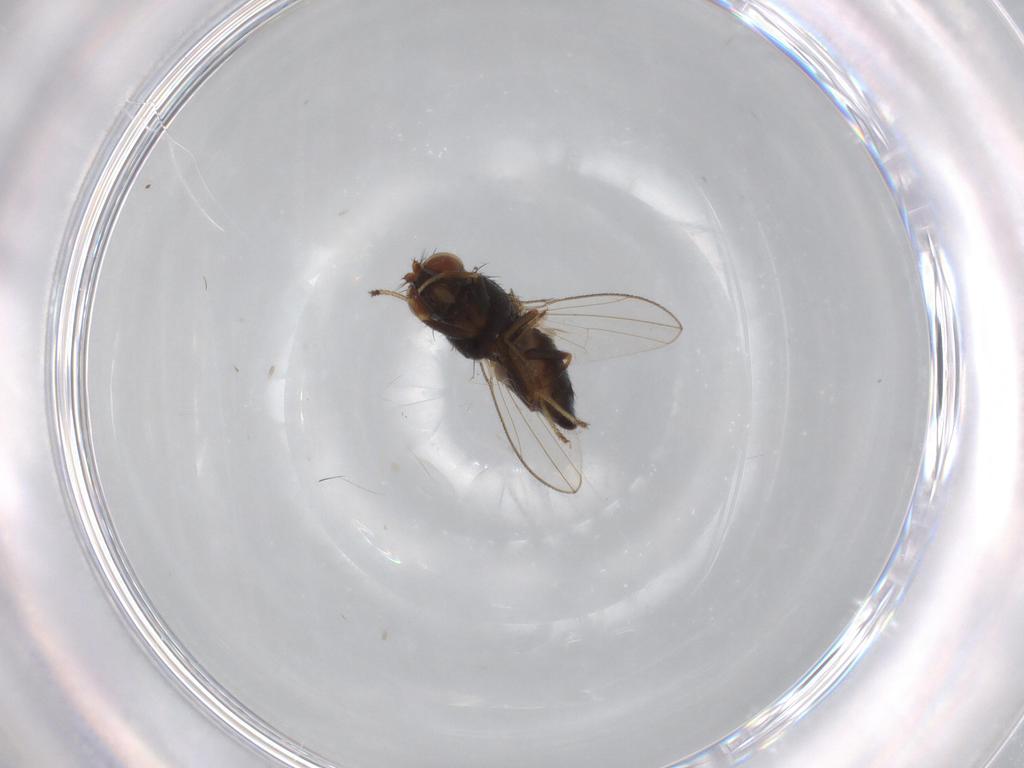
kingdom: Animalia
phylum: Arthropoda
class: Insecta
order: Diptera
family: Ephydridae
